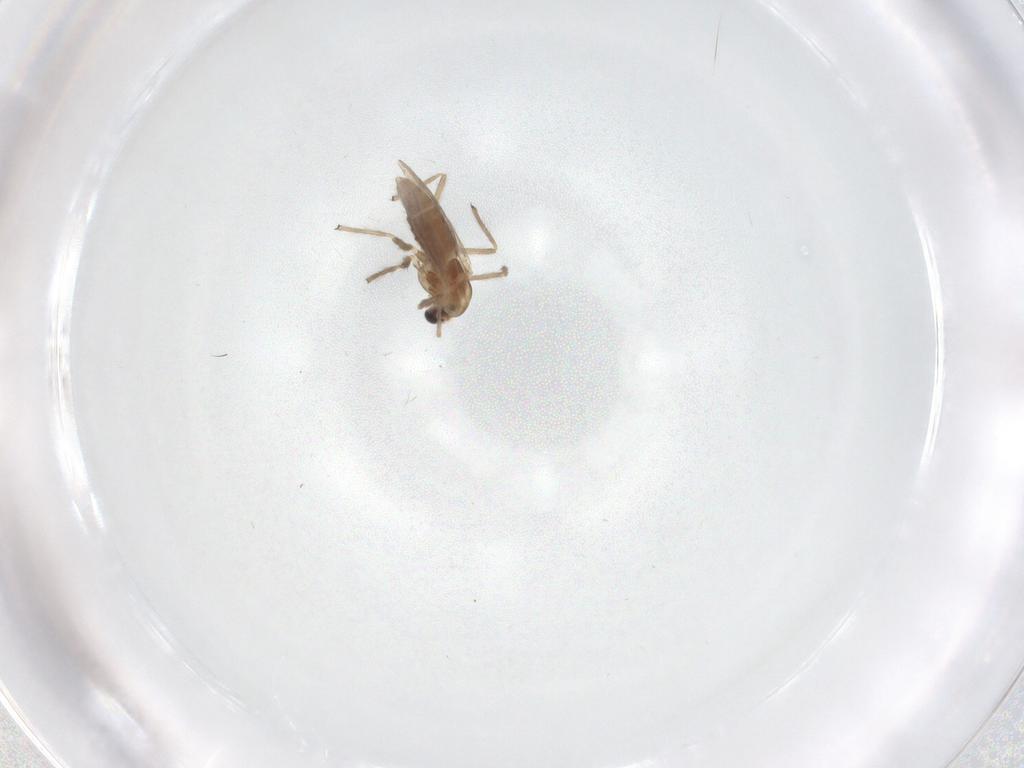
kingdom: Animalia
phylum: Arthropoda
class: Insecta
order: Diptera
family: Chironomidae
